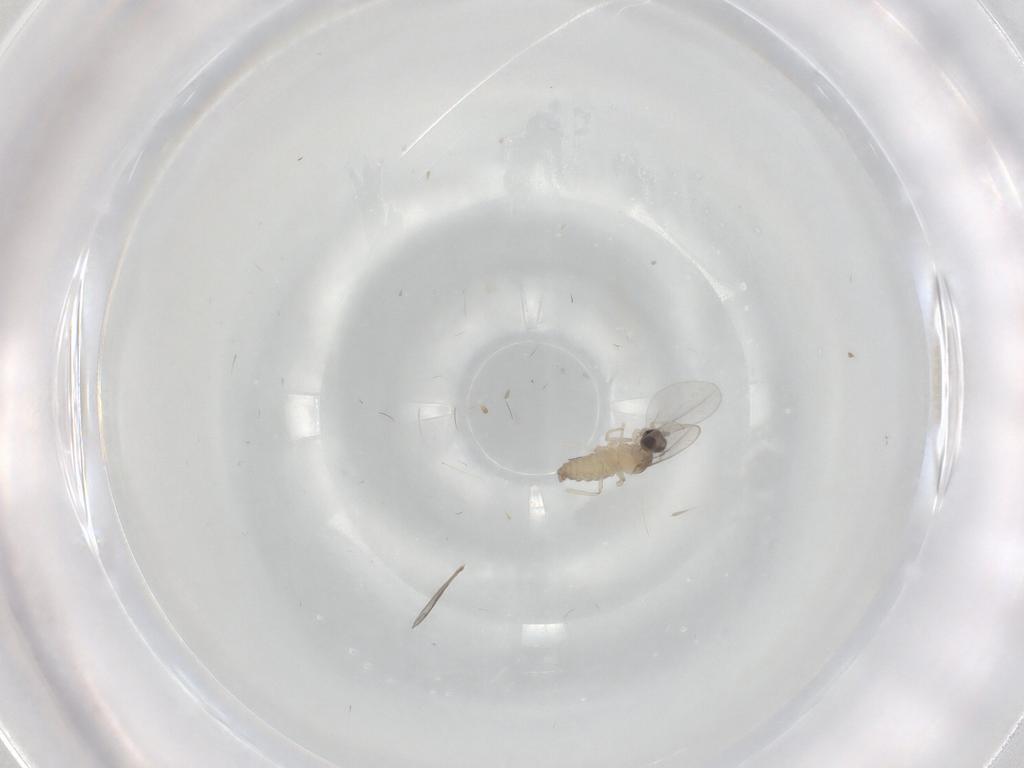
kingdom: Animalia
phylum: Arthropoda
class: Insecta
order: Diptera
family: Cecidomyiidae
